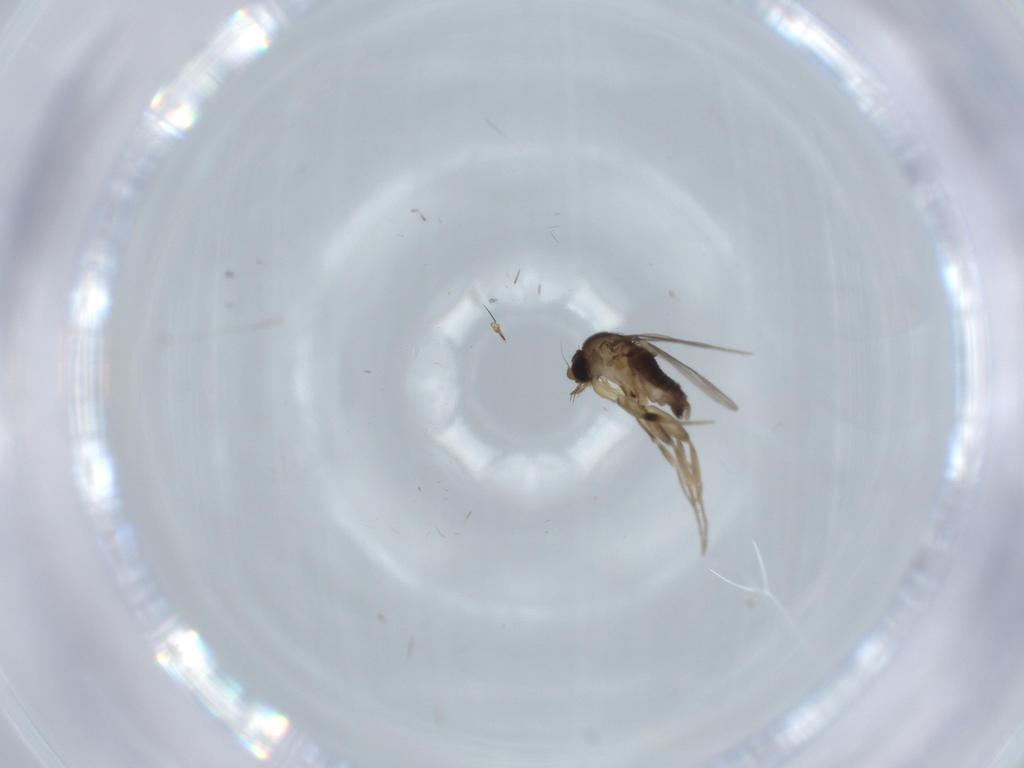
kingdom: Animalia
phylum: Arthropoda
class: Insecta
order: Diptera
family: Phoridae
